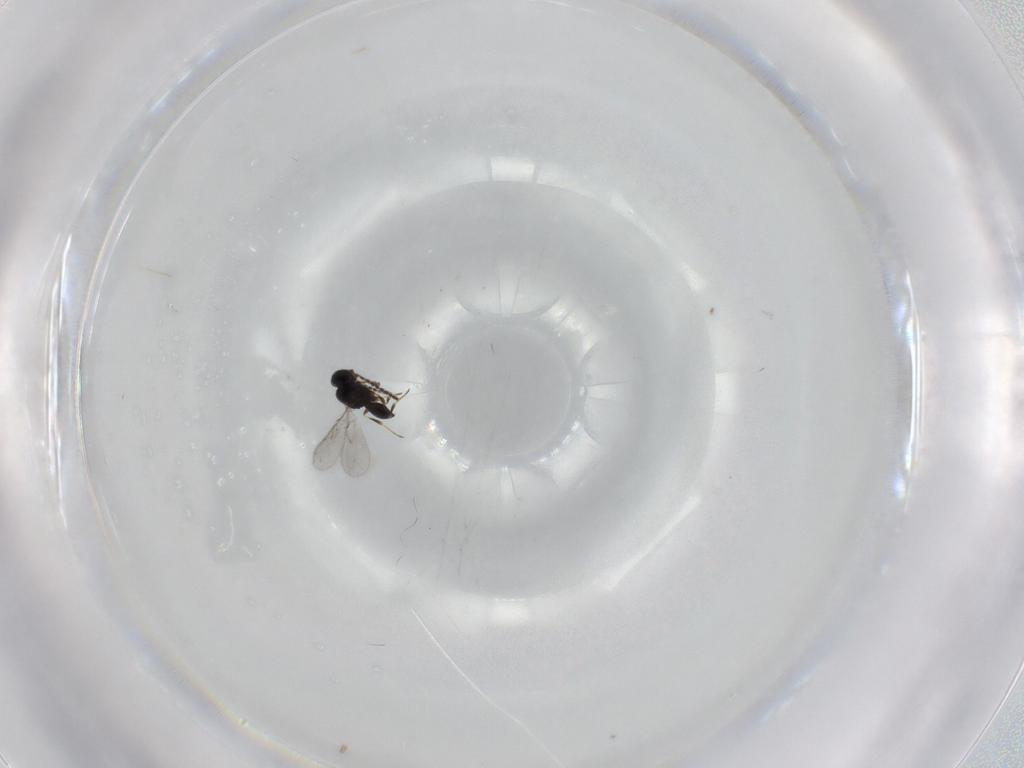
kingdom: Animalia
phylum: Arthropoda
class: Insecta
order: Hymenoptera
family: Scelionidae
